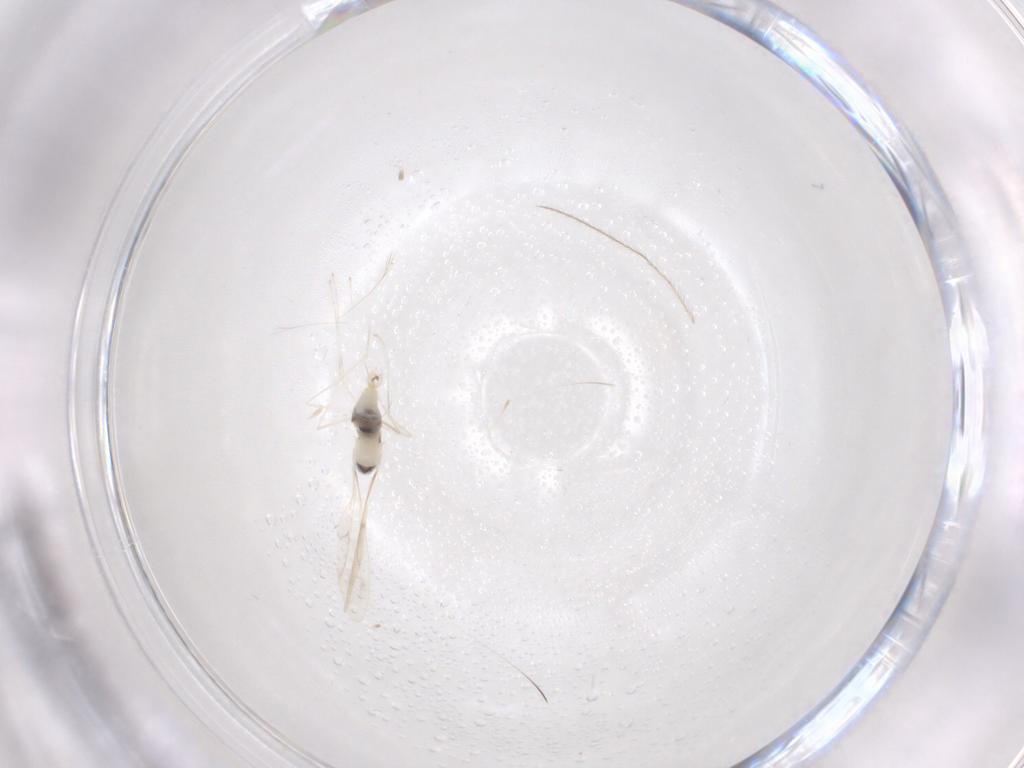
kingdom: Animalia
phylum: Arthropoda
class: Insecta
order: Diptera
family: Cecidomyiidae
